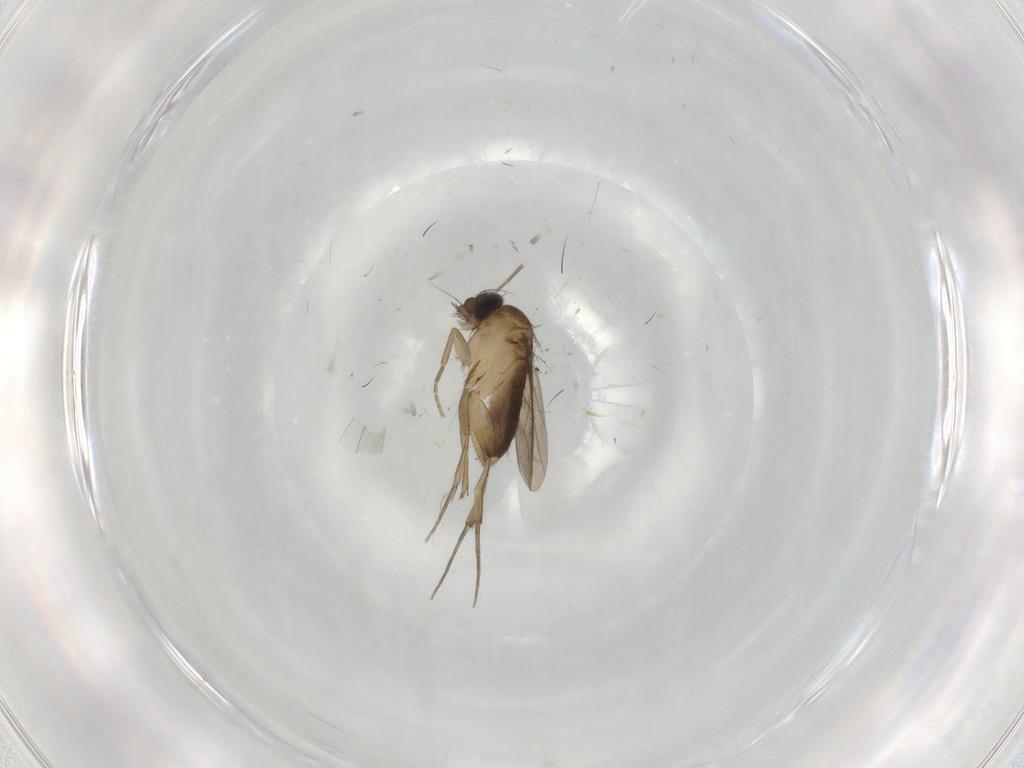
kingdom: Animalia
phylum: Arthropoda
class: Insecta
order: Diptera
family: Phoridae
